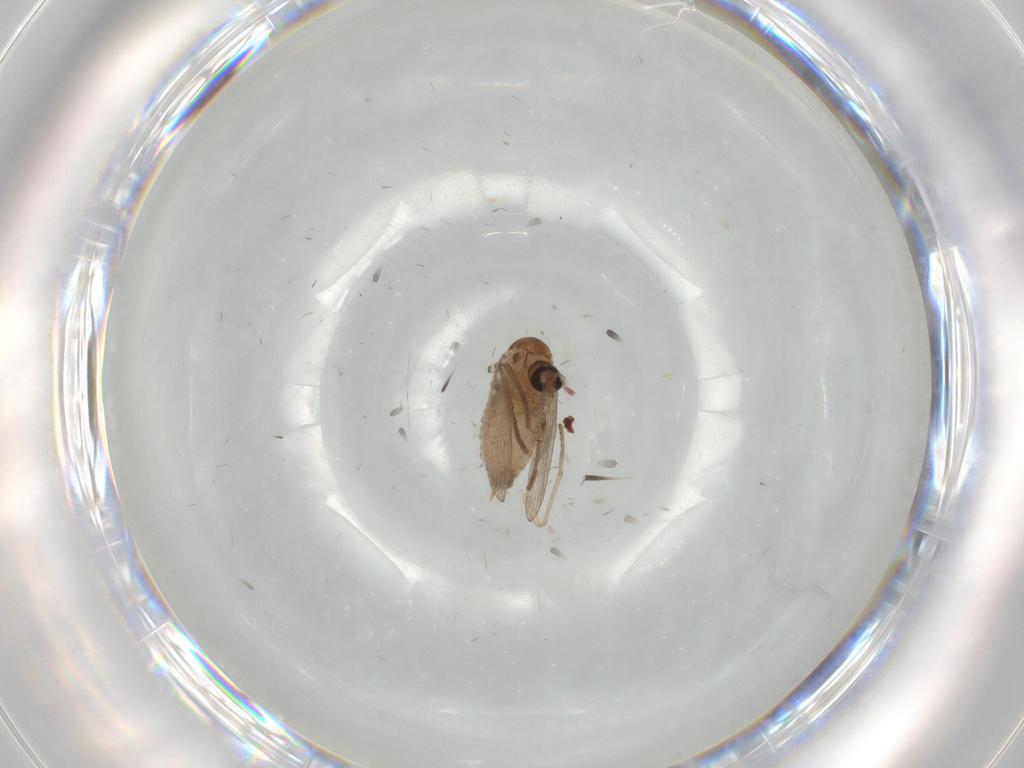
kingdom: Animalia
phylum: Arthropoda
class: Insecta
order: Diptera
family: Psychodidae
